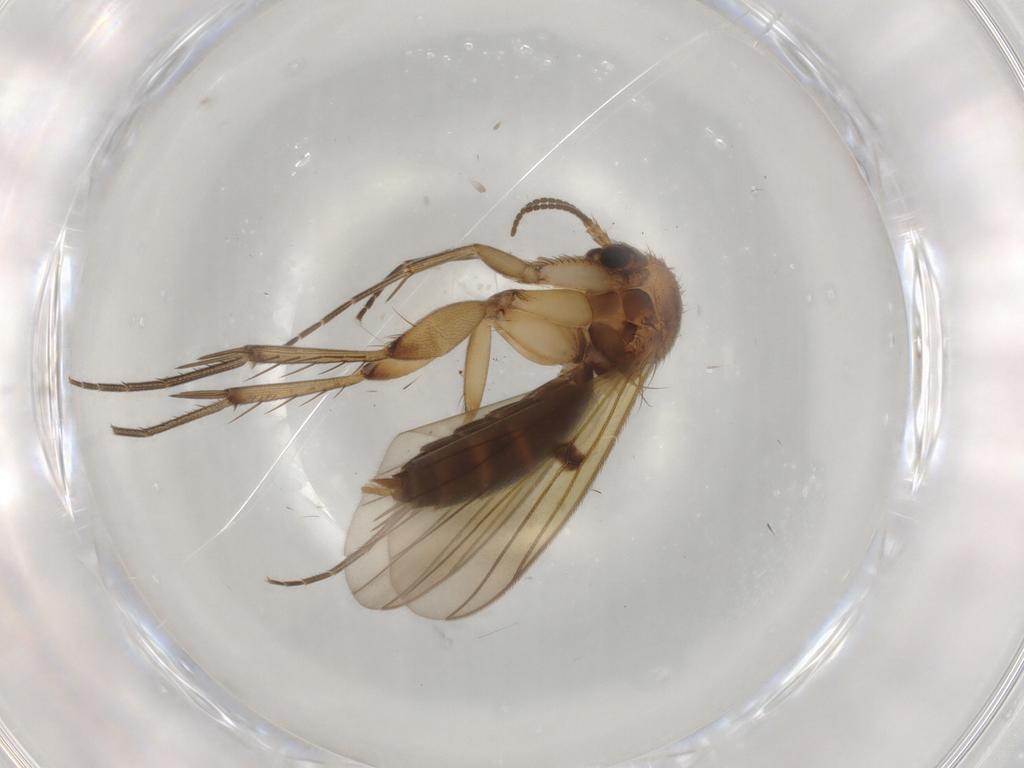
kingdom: Animalia
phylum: Arthropoda
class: Insecta
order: Diptera
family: Mycetophilidae
